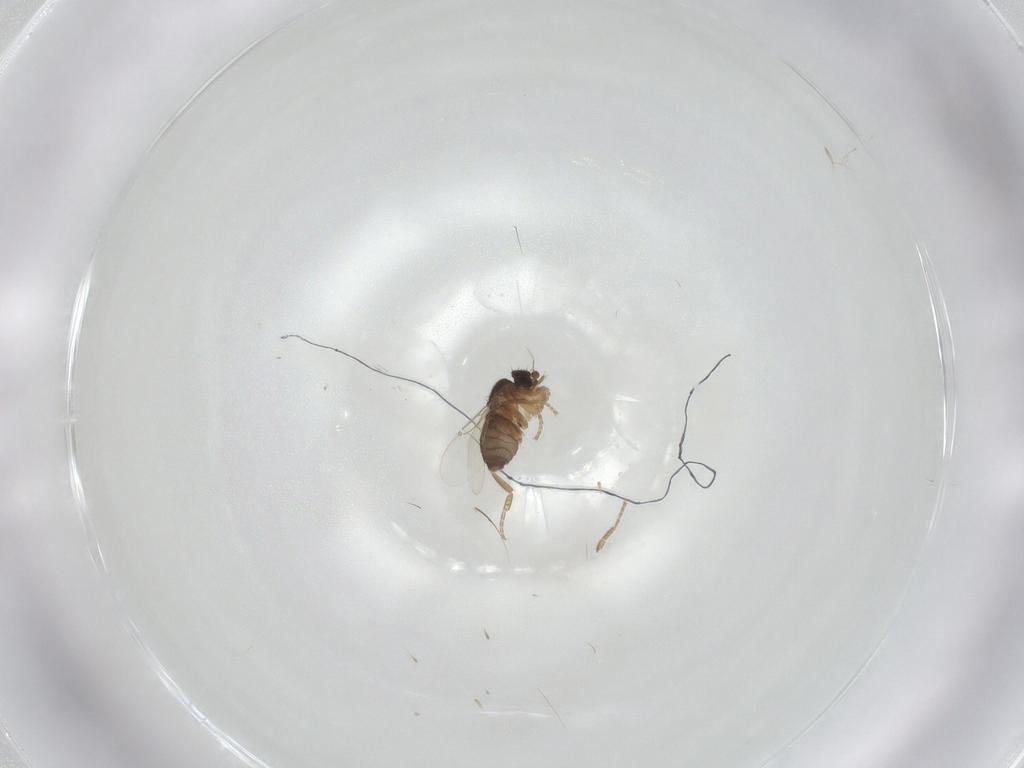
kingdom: Animalia
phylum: Arthropoda
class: Insecta
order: Diptera
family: Phoridae
